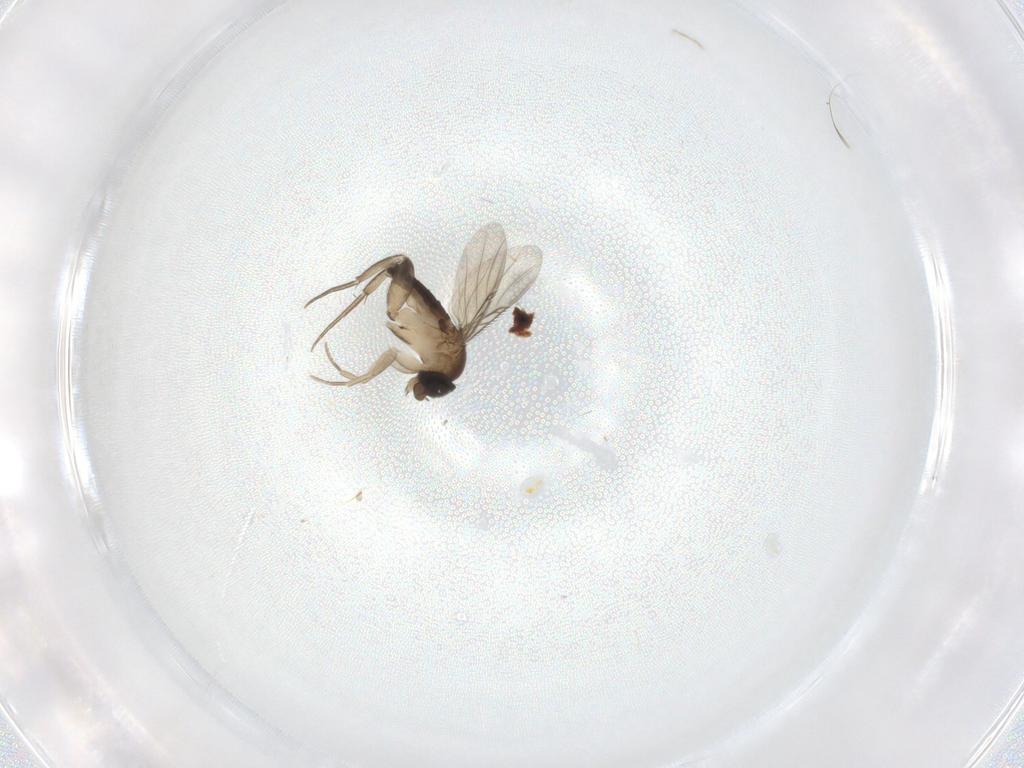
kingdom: Animalia
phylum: Arthropoda
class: Insecta
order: Diptera
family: Phoridae
